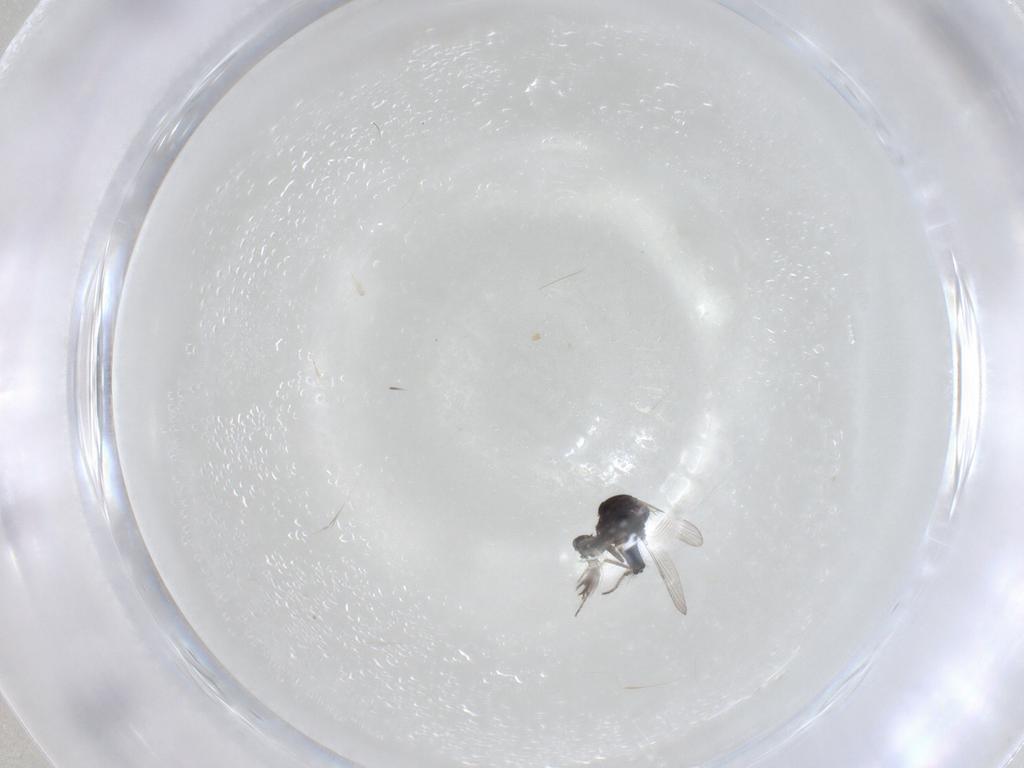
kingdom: Animalia
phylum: Arthropoda
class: Insecta
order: Diptera
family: Ceratopogonidae
